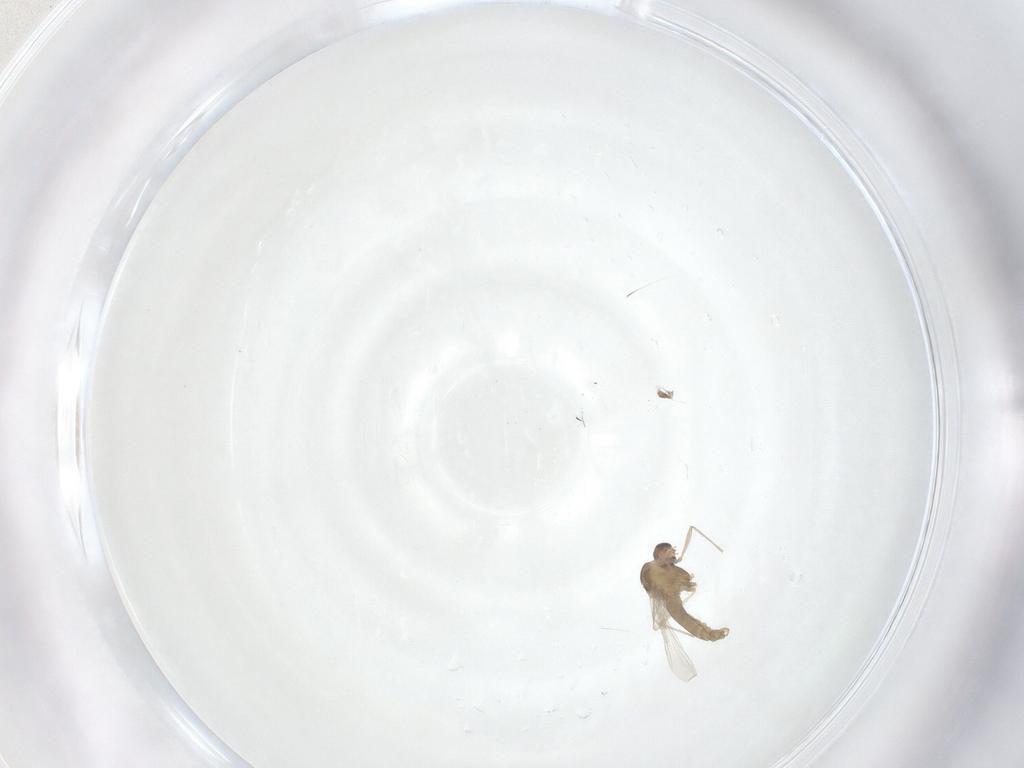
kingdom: Animalia
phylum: Arthropoda
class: Insecta
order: Diptera
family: Chironomidae
